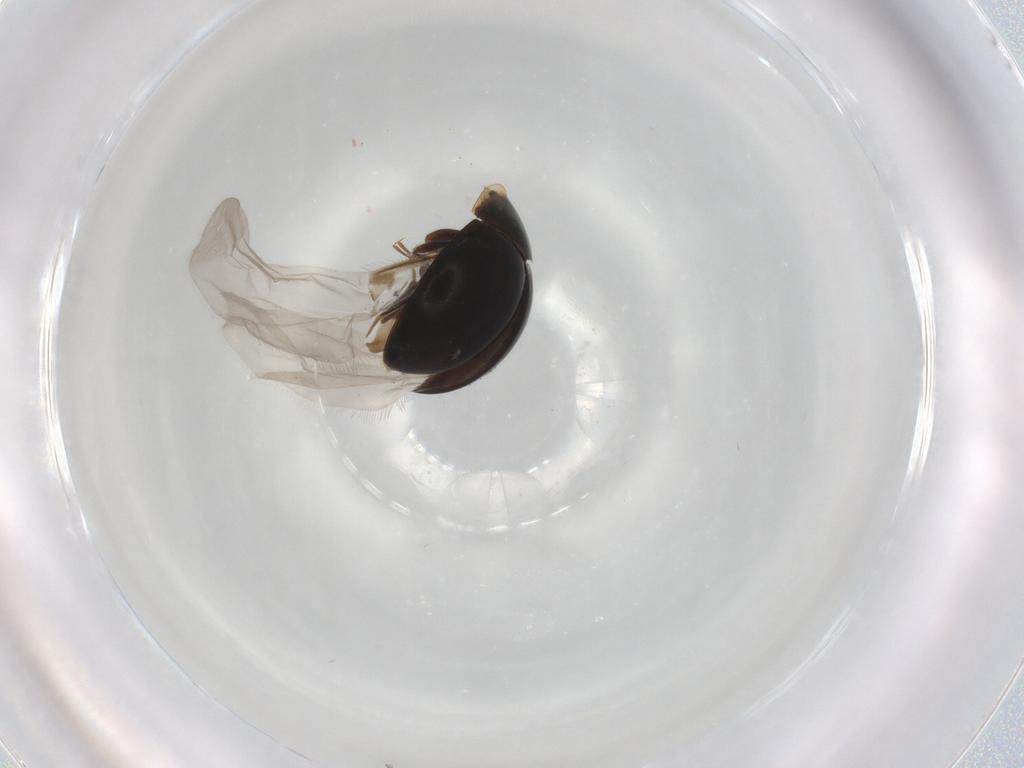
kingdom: Animalia
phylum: Arthropoda
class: Insecta
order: Coleoptera
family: Corylophidae
